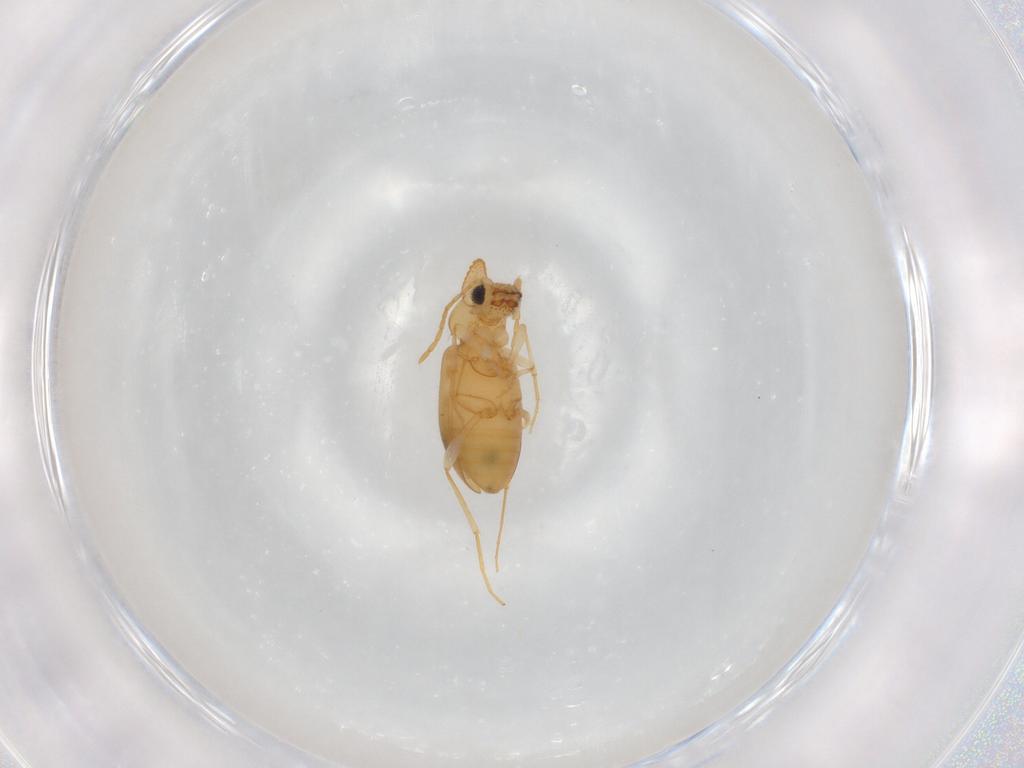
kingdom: Animalia
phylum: Arthropoda
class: Insecta
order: Coleoptera
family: Anthicidae
